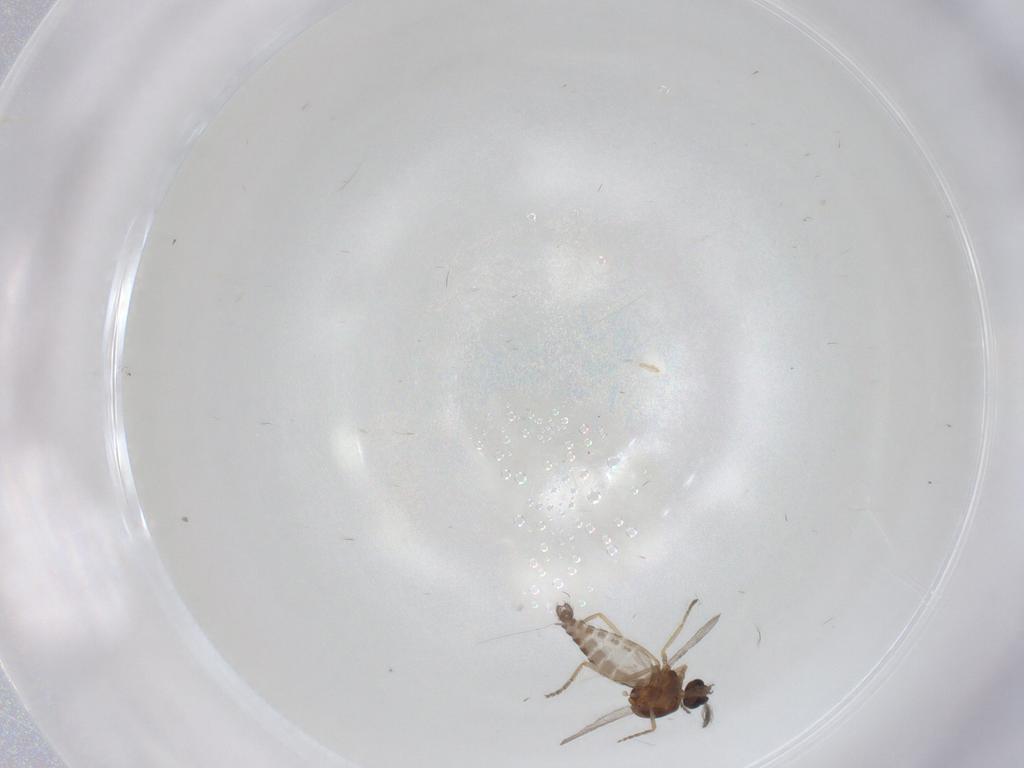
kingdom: Animalia
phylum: Arthropoda
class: Insecta
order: Diptera
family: Ceratopogonidae
